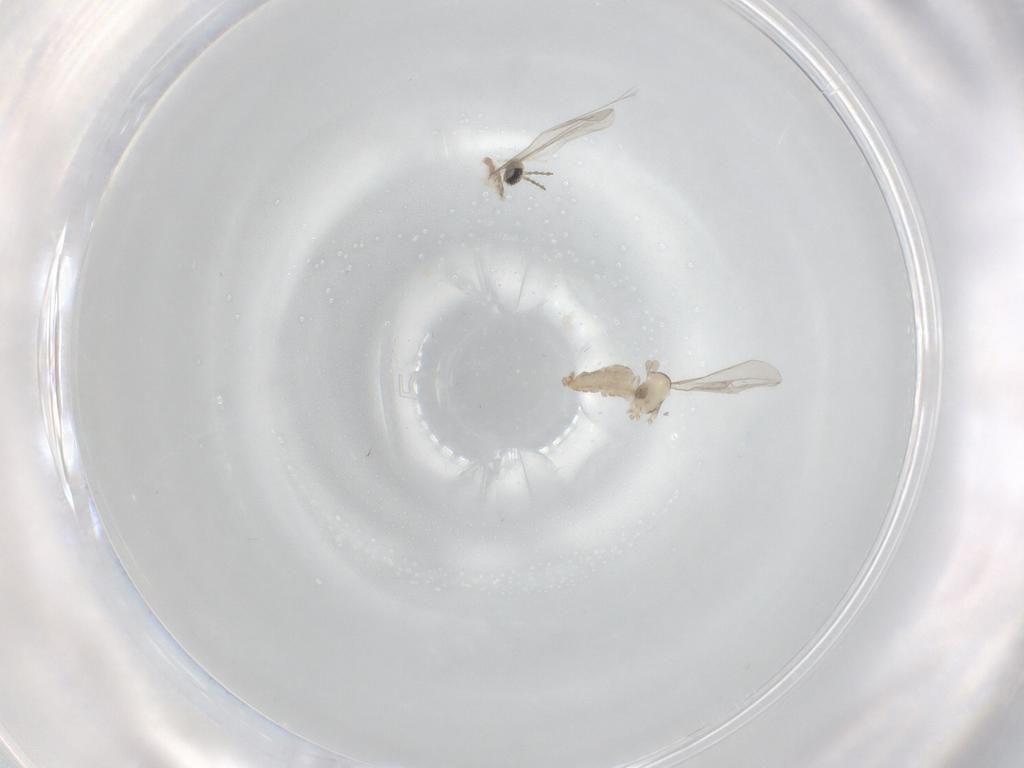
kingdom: Animalia
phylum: Arthropoda
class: Insecta
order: Diptera
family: Cecidomyiidae
